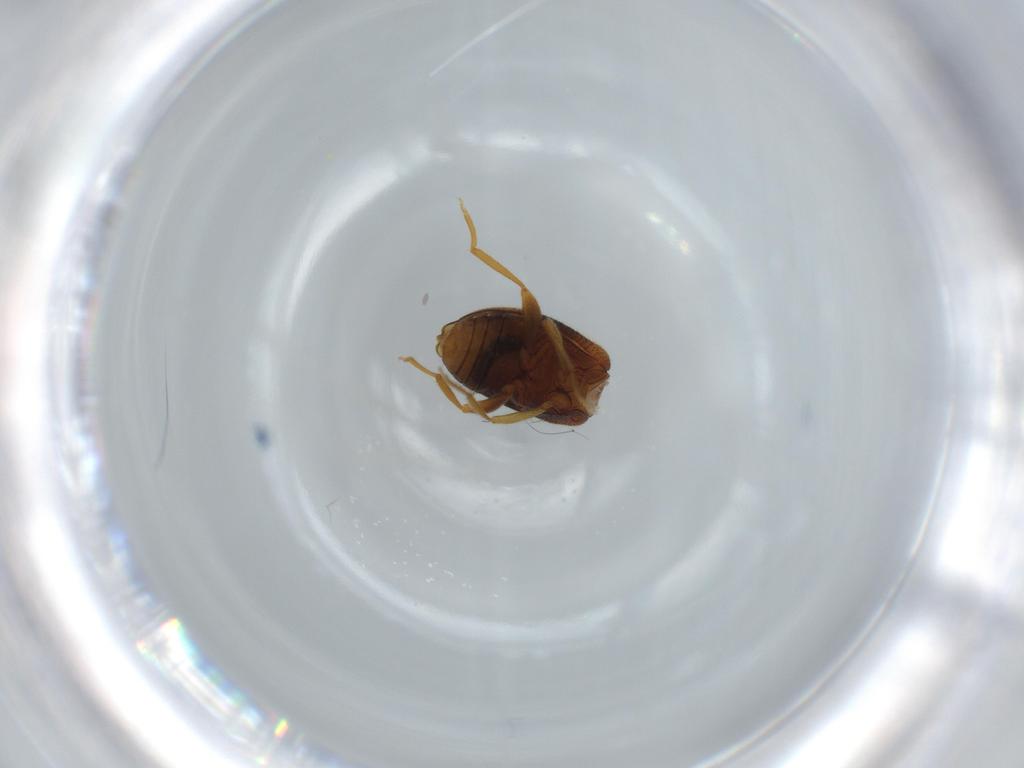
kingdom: Animalia
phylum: Arthropoda
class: Insecta
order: Coleoptera
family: Aderidae
